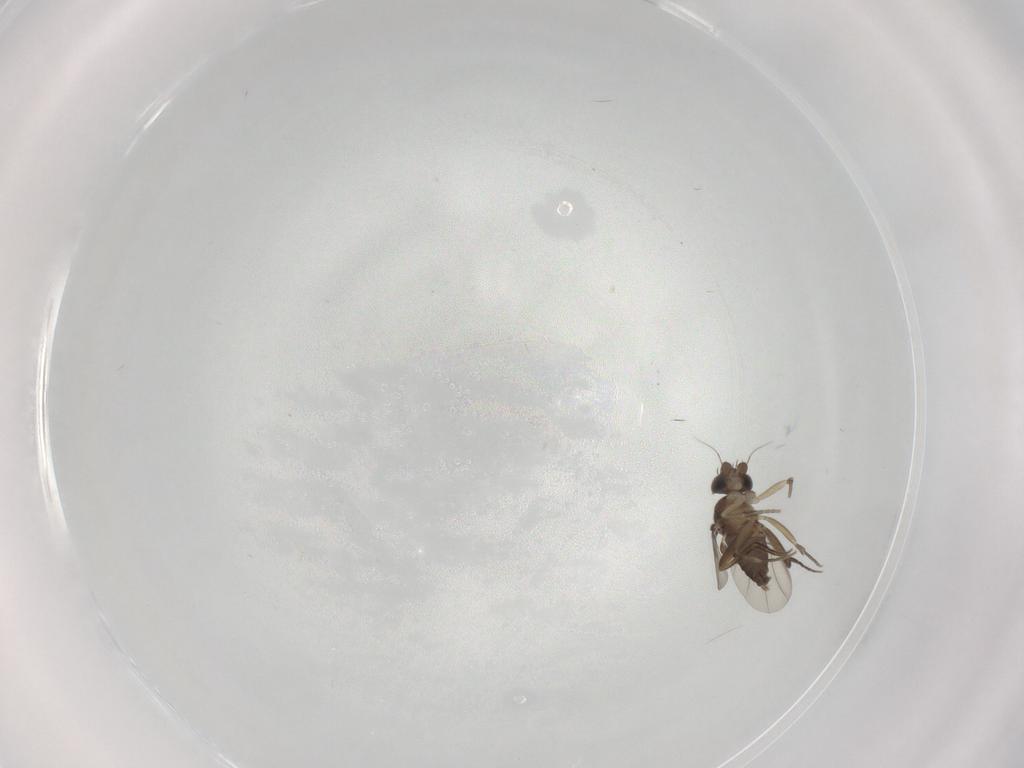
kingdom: Animalia
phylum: Arthropoda
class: Insecta
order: Diptera
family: Phoridae
